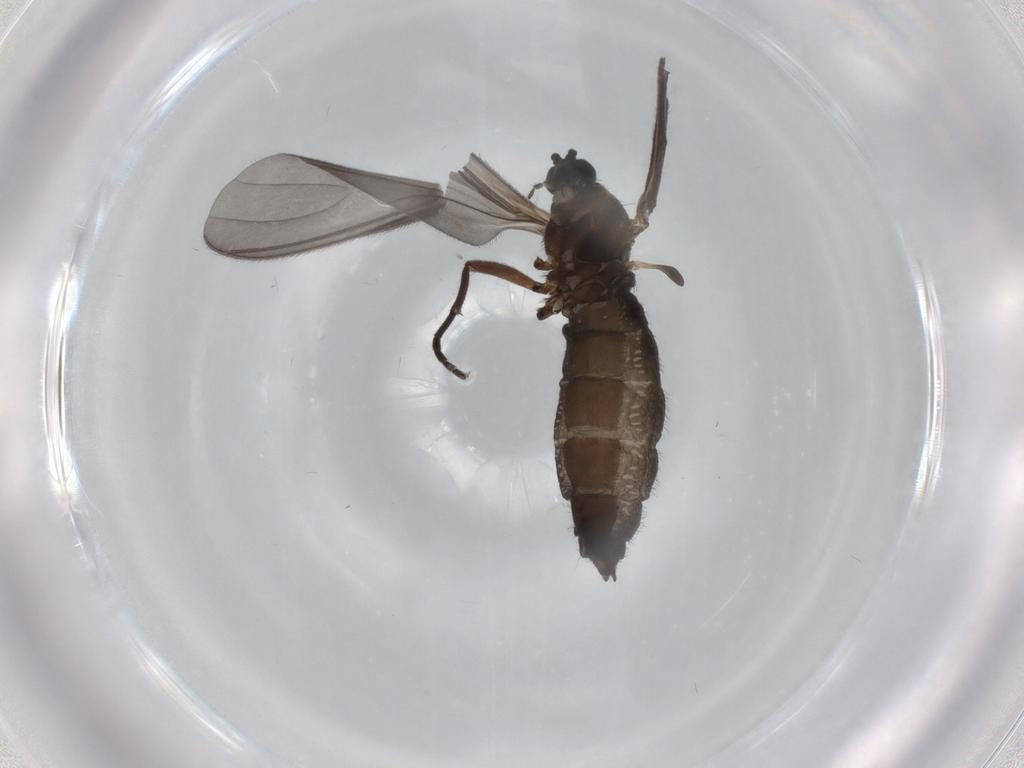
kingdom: Animalia
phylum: Arthropoda
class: Insecta
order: Diptera
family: Sciaridae
